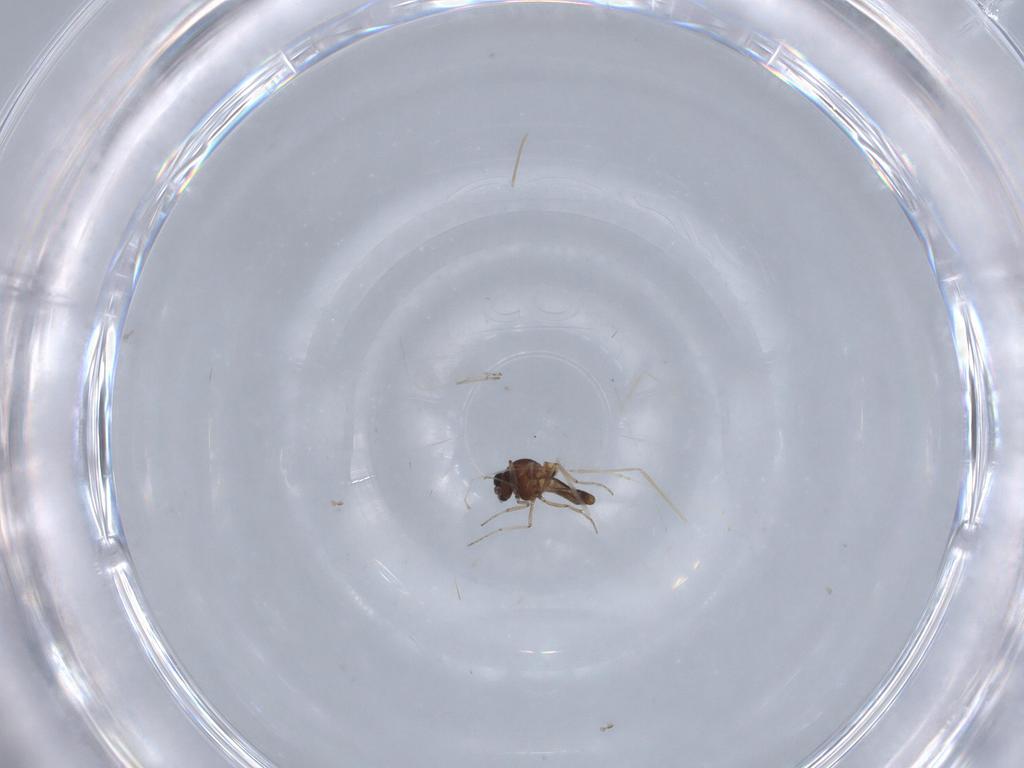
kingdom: Animalia
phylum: Arthropoda
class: Insecta
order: Diptera
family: Ceratopogonidae
